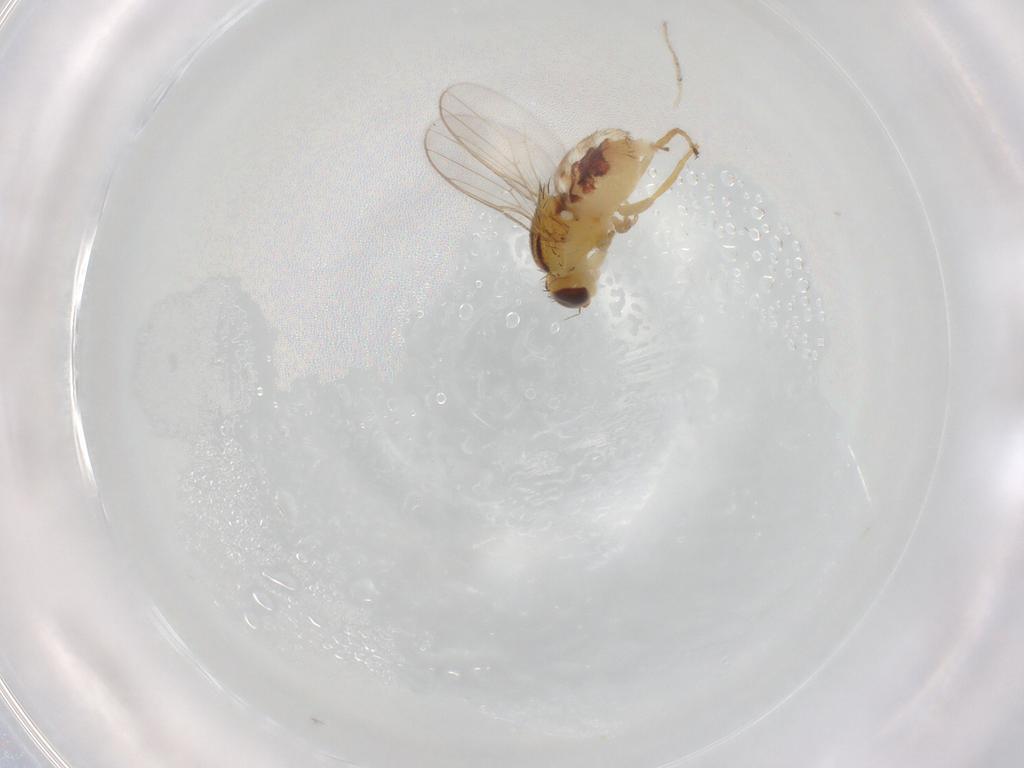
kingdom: Animalia
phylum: Arthropoda
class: Insecta
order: Diptera
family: Chloropidae
